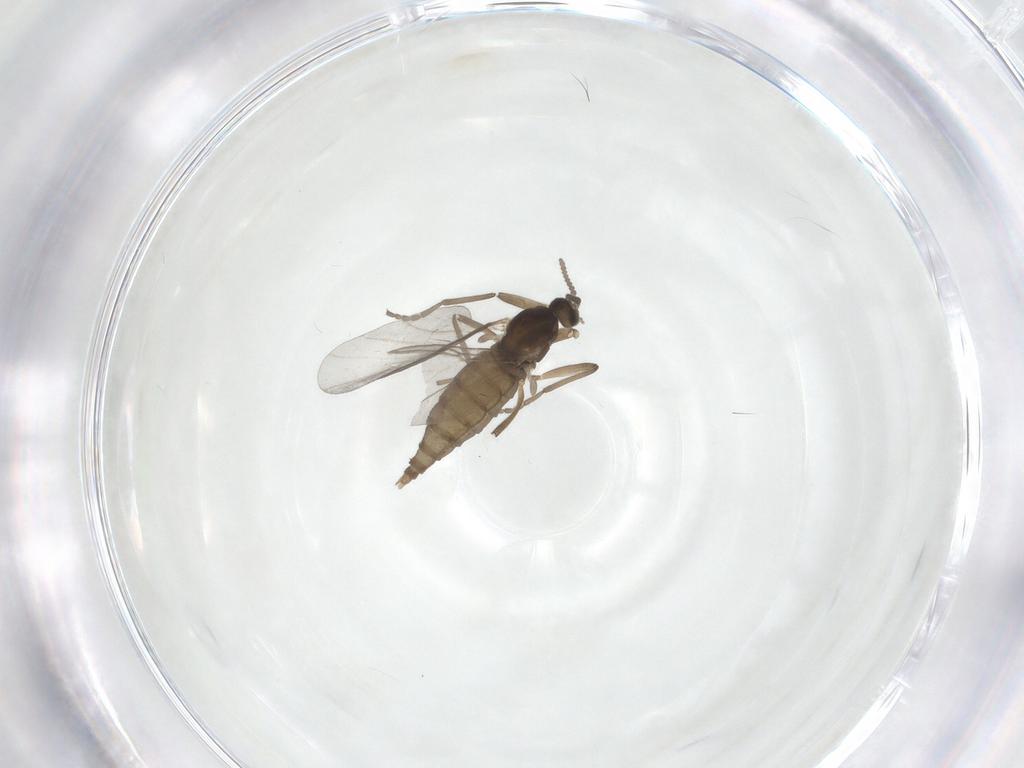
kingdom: Animalia
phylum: Arthropoda
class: Insecta
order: Diptera
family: Cecidomyiidae
